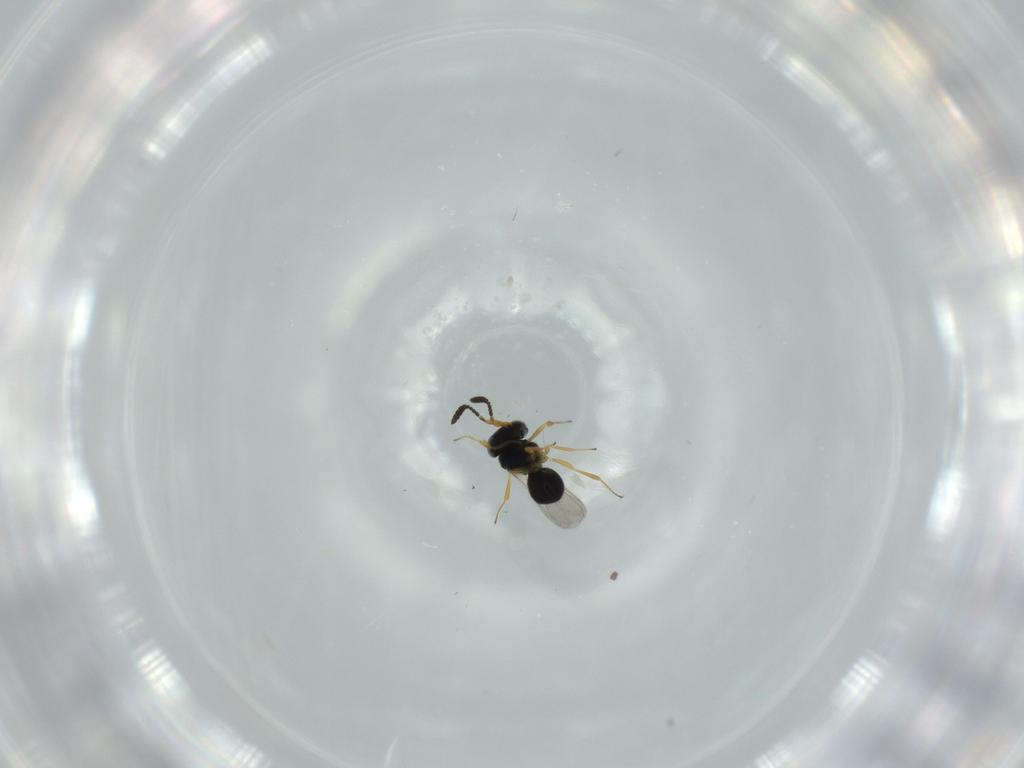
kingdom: Animalia
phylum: Arthropoda
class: Insecta
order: Hymenoptera
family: Scelionidae
